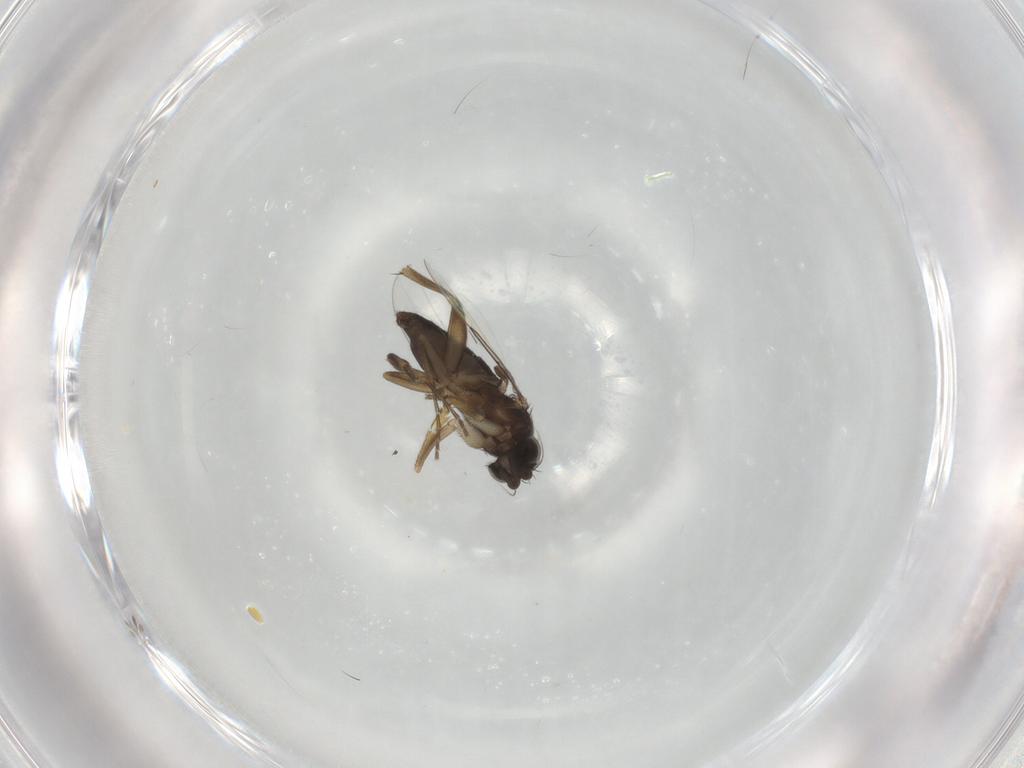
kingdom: Animalia
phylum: Arthropoda
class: Insecta
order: Diptera
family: Phoridae
